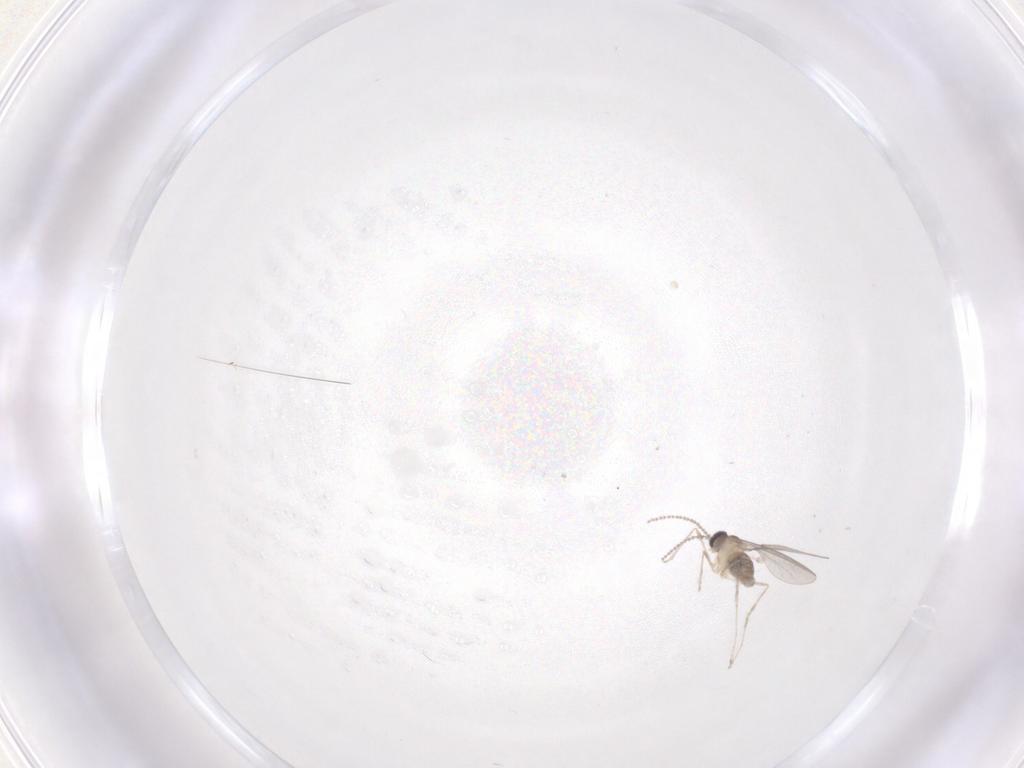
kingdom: Animalia
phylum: Arthropoda
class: Insecta
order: Diptera
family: Cecidomyiidae
